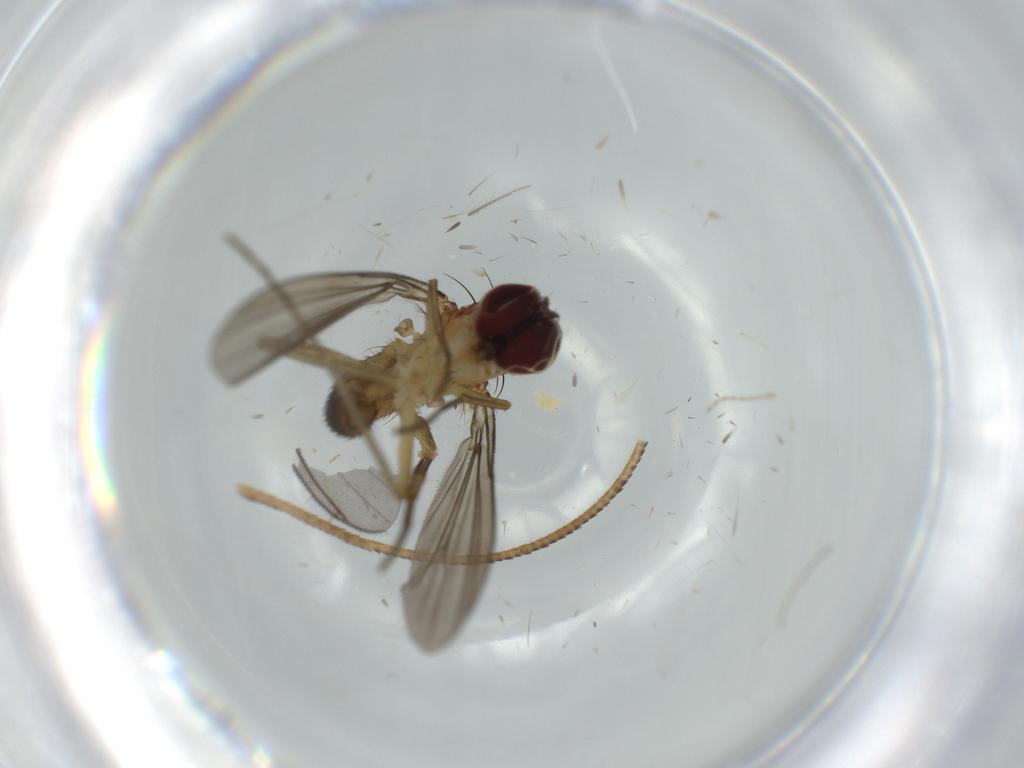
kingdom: Animalia
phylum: Arthropoda
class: Insecta
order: Diptera
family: Dolichopodidae
